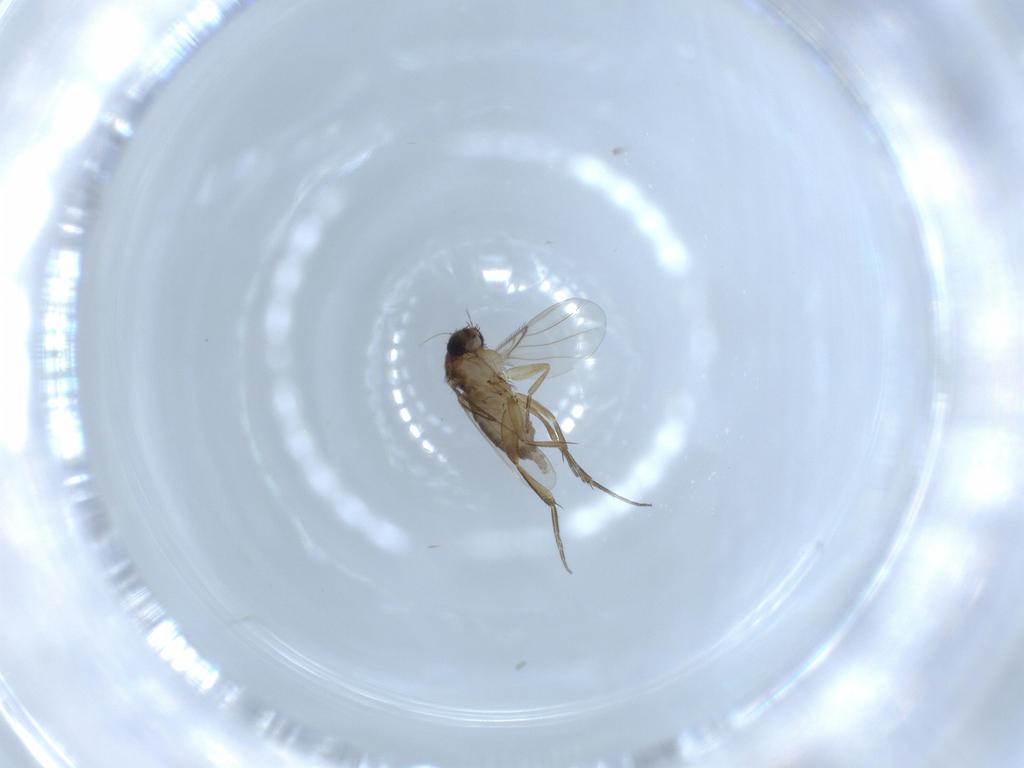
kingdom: Animalia
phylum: Arthropoda
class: Insecta
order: Diptera
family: Phoridae
